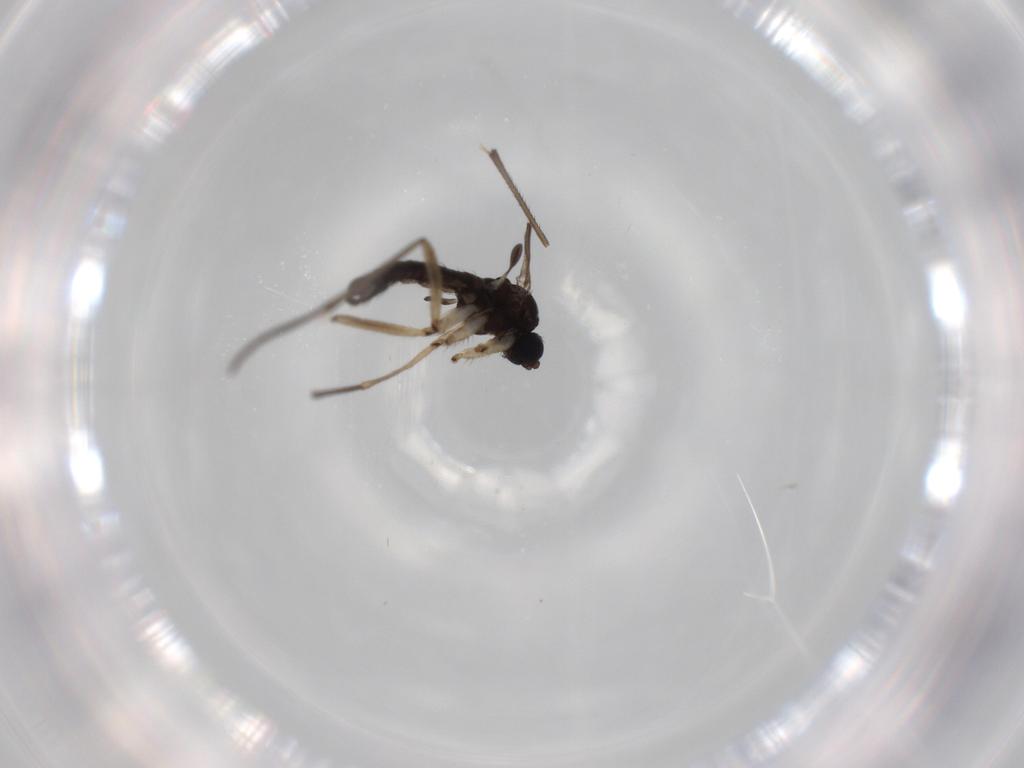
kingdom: Animalia
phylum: Arthropoda
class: Insecta
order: Diptera
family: Sciaridae
